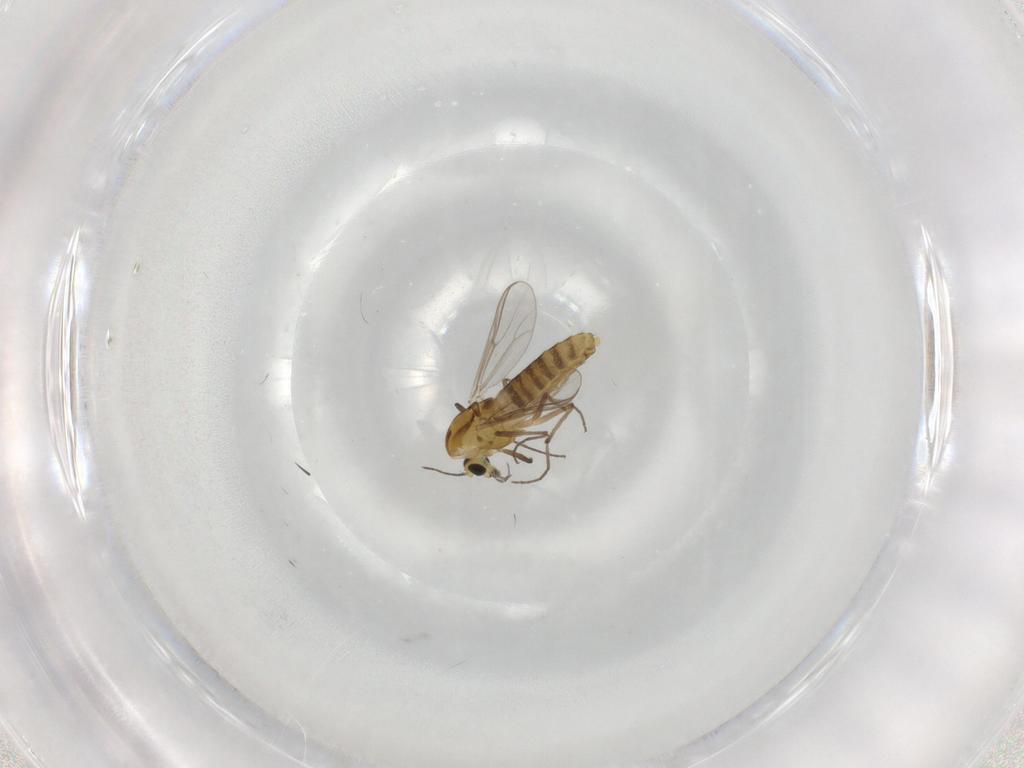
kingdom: Animalia
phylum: Arthropoda
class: Insecta
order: Diptera
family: Chironomidae
